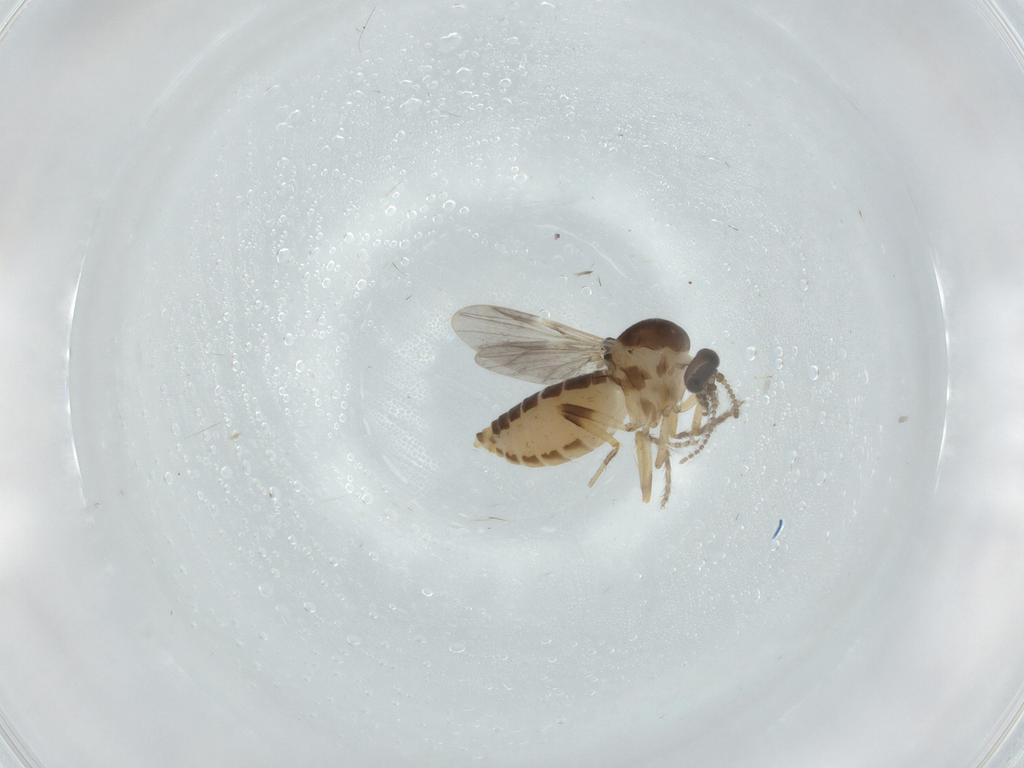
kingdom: Animalia
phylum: Arthropoda
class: Insecta
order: Diptera
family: Ceratopogonidae
